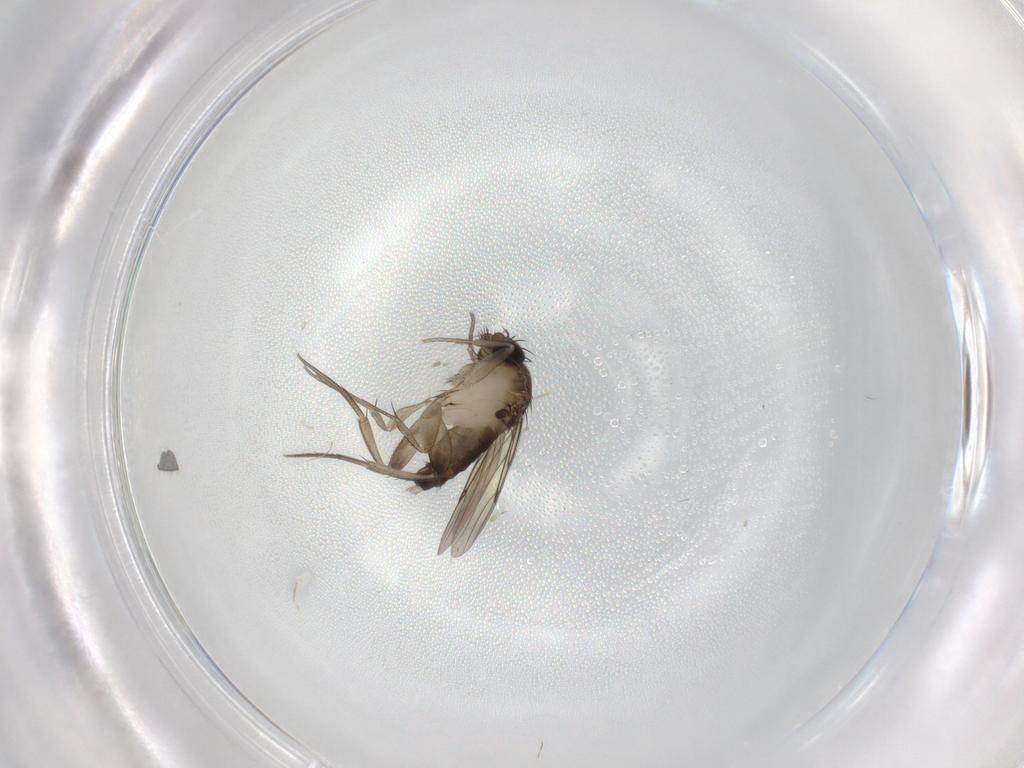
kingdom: Animalia
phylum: Arthropoda
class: Insecta
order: Diptera
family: Phoridae
